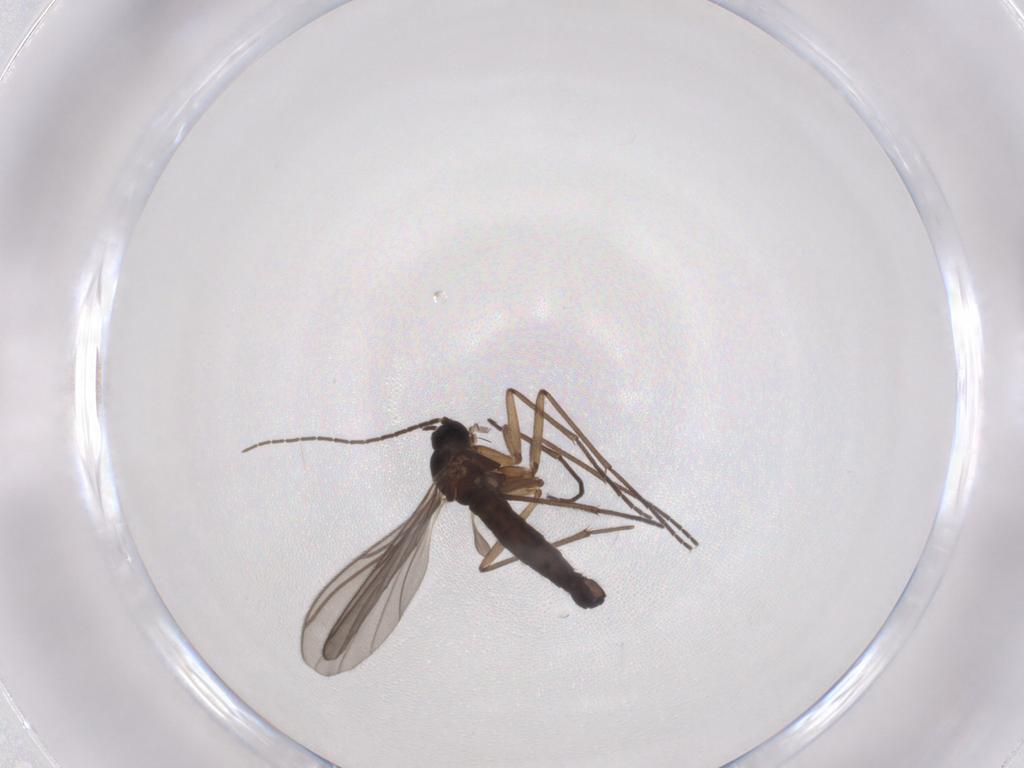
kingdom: Animalia
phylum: Arthropoda
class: Insecta
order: Diptera
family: Sciaridae
